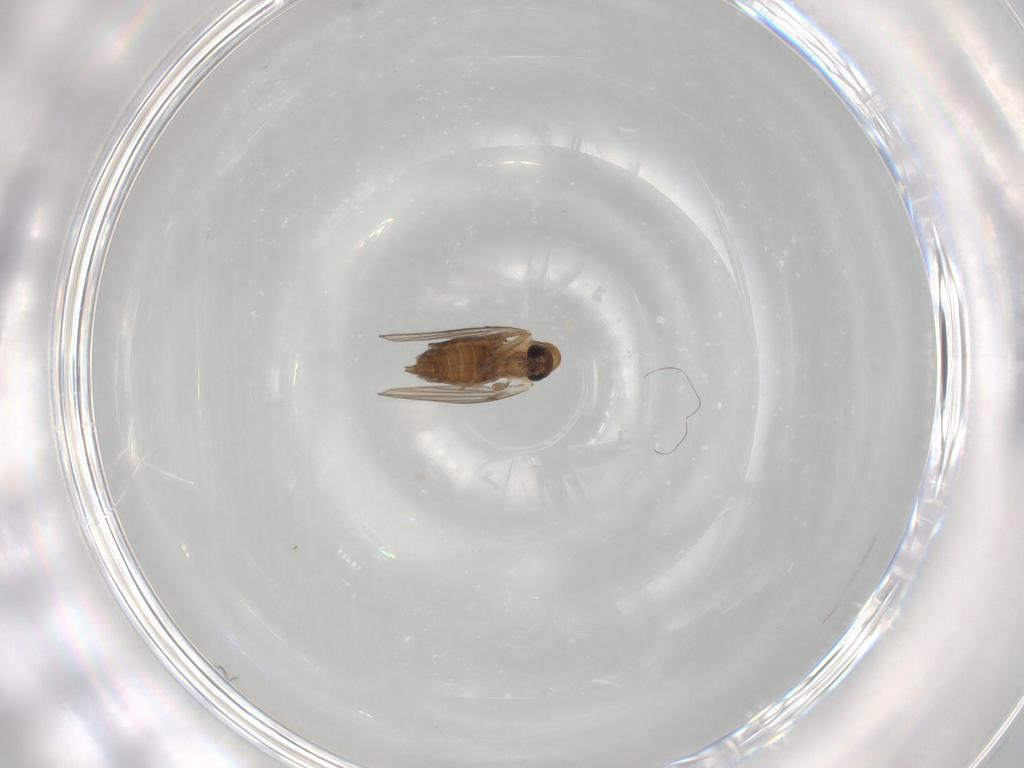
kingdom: Animalia
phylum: Arthropoda
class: Insecta
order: Diptera
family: Psychodidae
